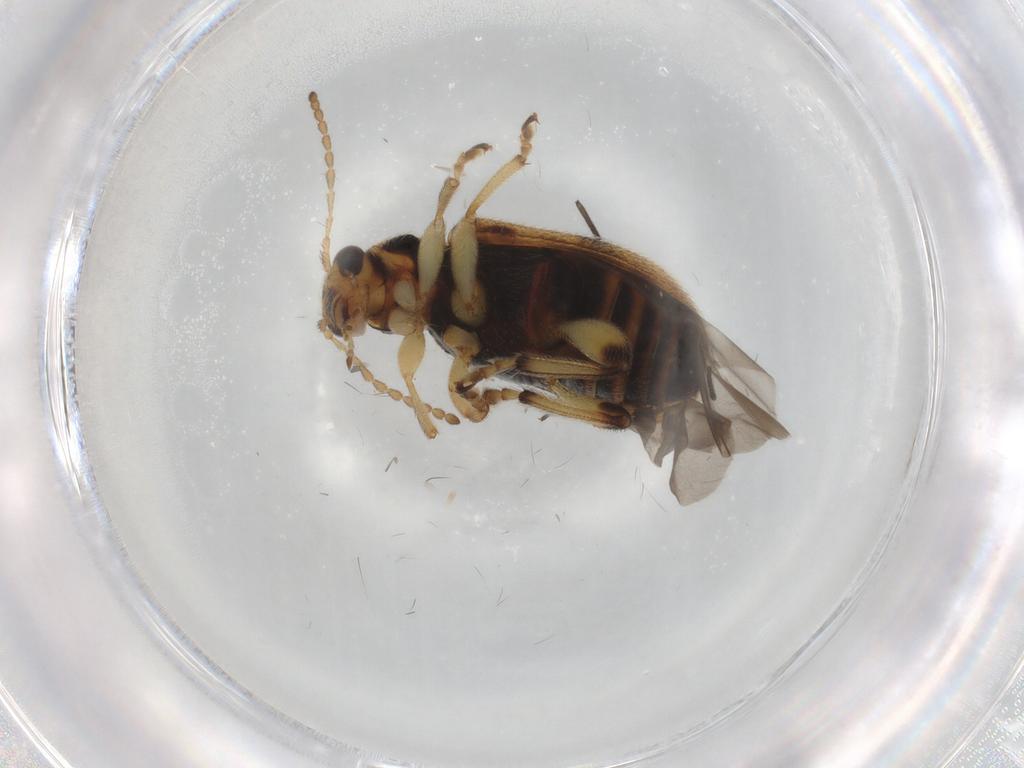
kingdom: Animalia
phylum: Arthropoda
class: Insecta
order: Coleoptera
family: Megalopodidae
